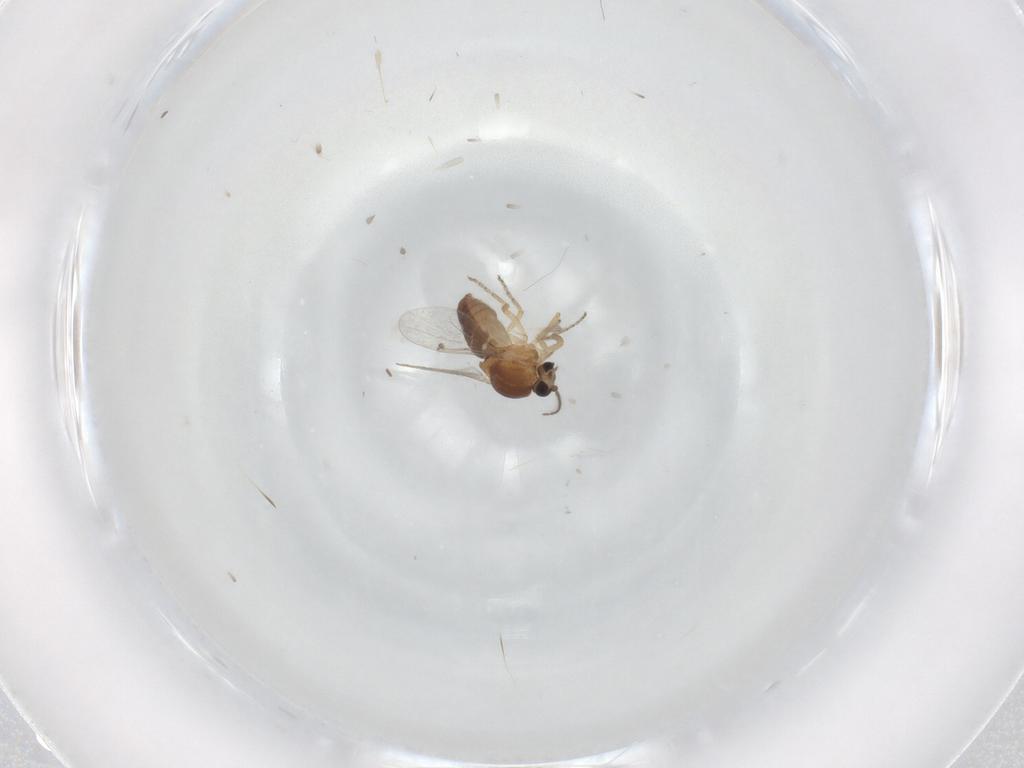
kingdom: Animalia
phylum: Arthropoda
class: Insecta
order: Diptera
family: Ceratopogonidae
